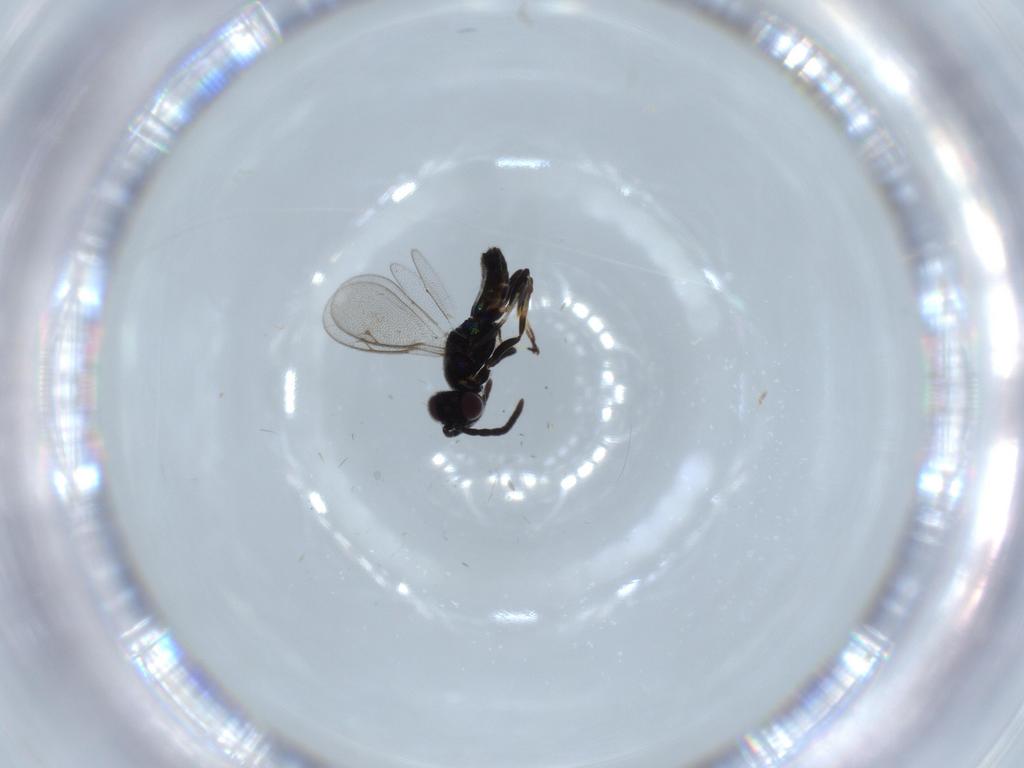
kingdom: Animalia
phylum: Arthropoda
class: Insecta
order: Hymenoptera
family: Eupelmidae
